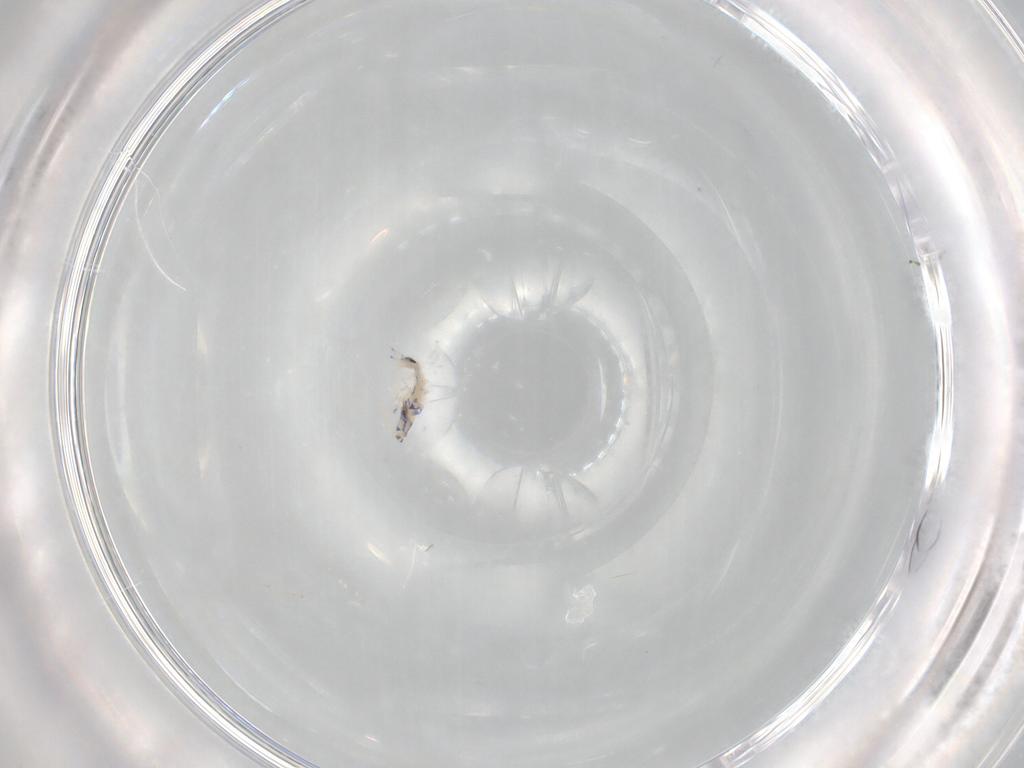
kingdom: Animalia
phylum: Arthropoda
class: Collembola
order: Entomobryomorpha
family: Entomobryidae
